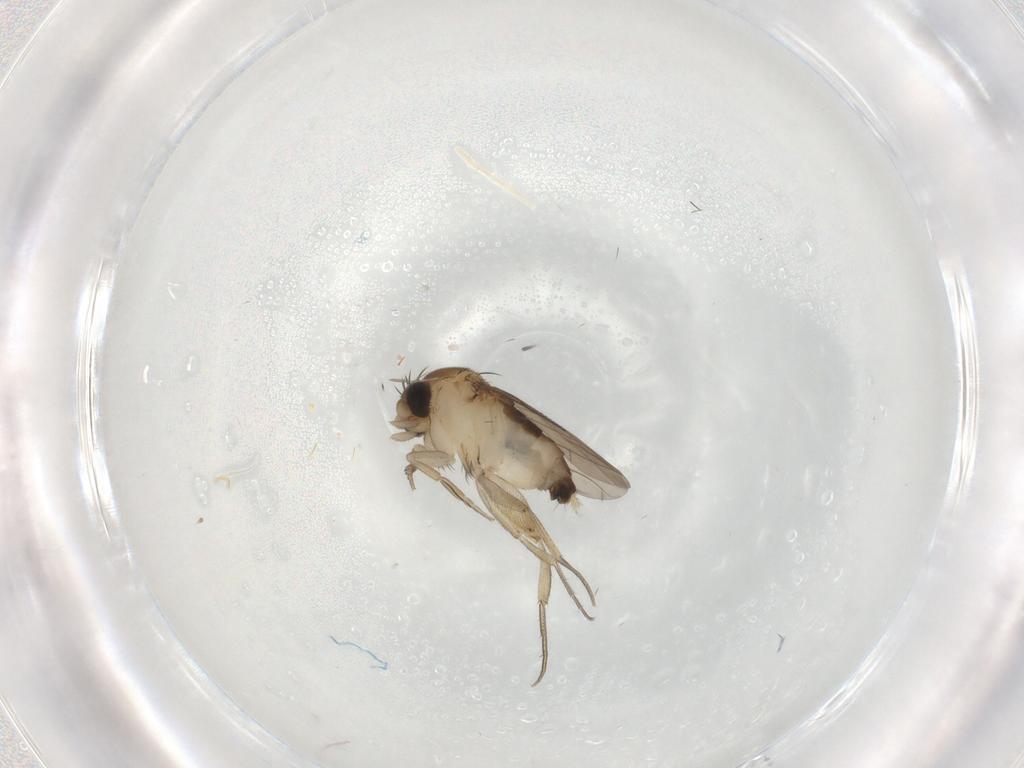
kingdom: Animalia
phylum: Arthropoda
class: Insecta
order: Diptera
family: Phoridae
